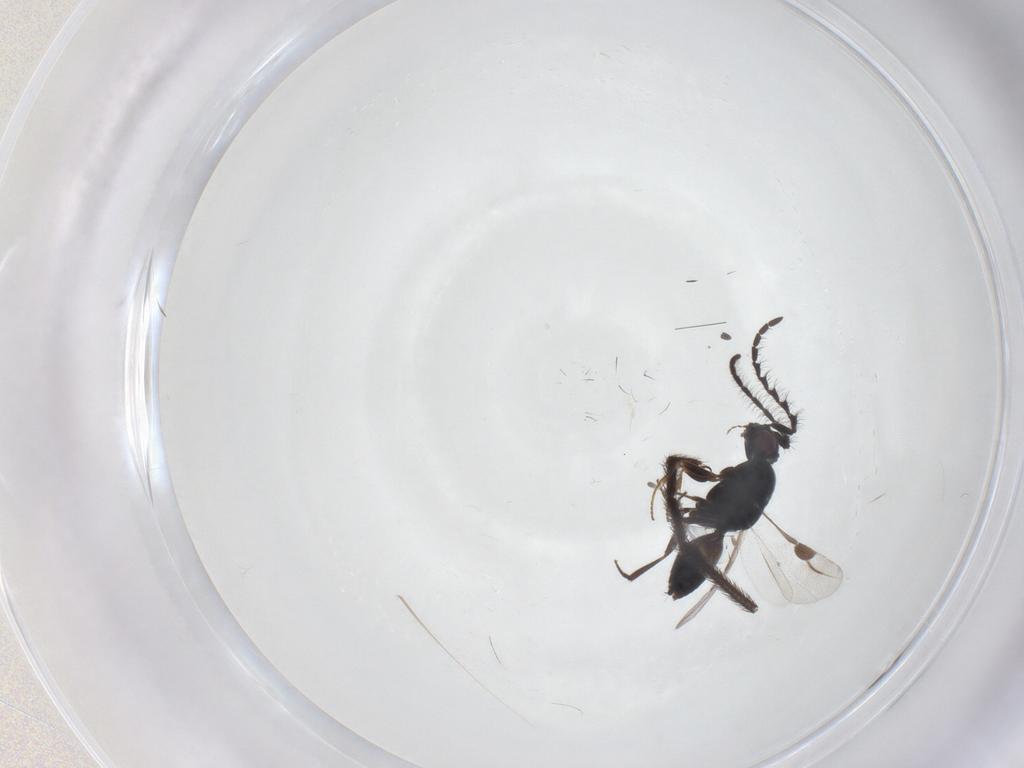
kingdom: Animalia
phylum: Arthropoda
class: Insecta
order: Hymenoptera
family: Megaspilidae
